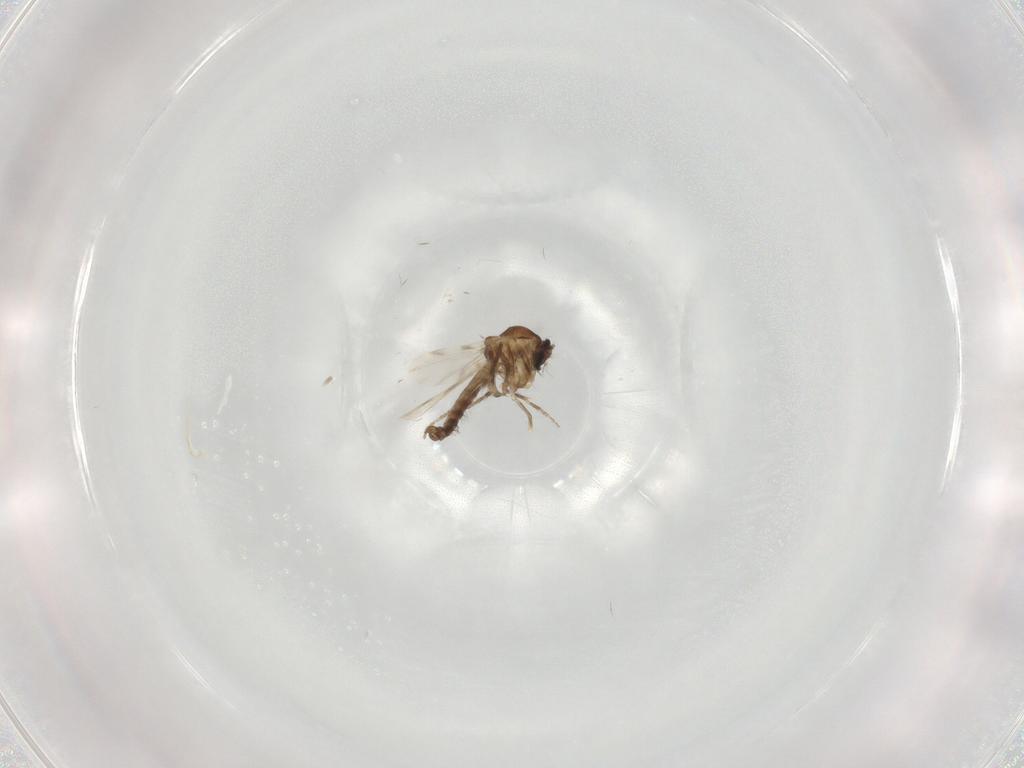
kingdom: Animalia
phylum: Arthropoda
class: Insecta
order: Diptera
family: Ceratopogonidae
